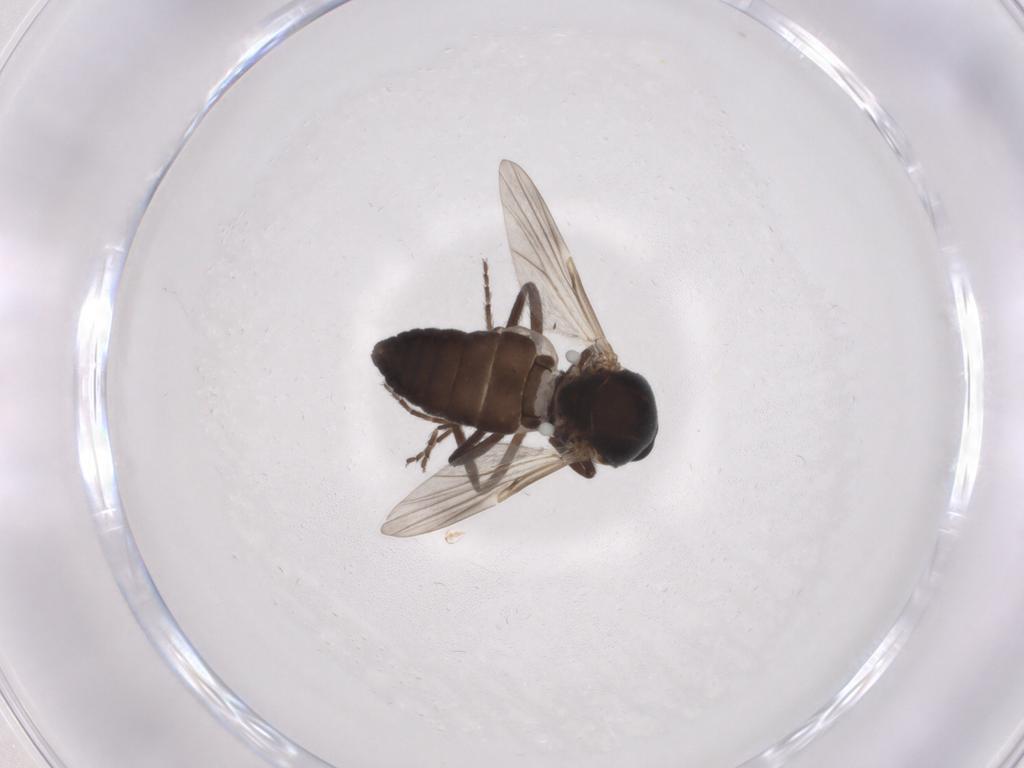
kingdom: Animalia
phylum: Arthropoda
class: Insecta
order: Diptera
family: Ceratopogonidae
